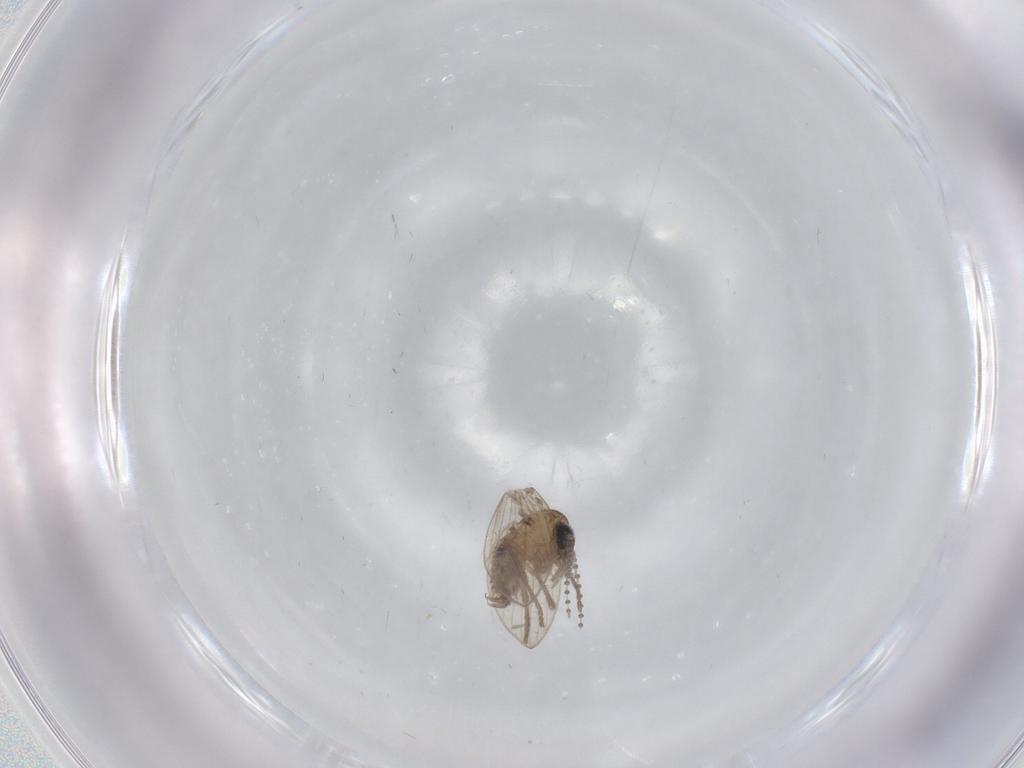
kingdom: Animalia
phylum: Arthropoda
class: Insecta
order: Diptera
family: Psychodidae
